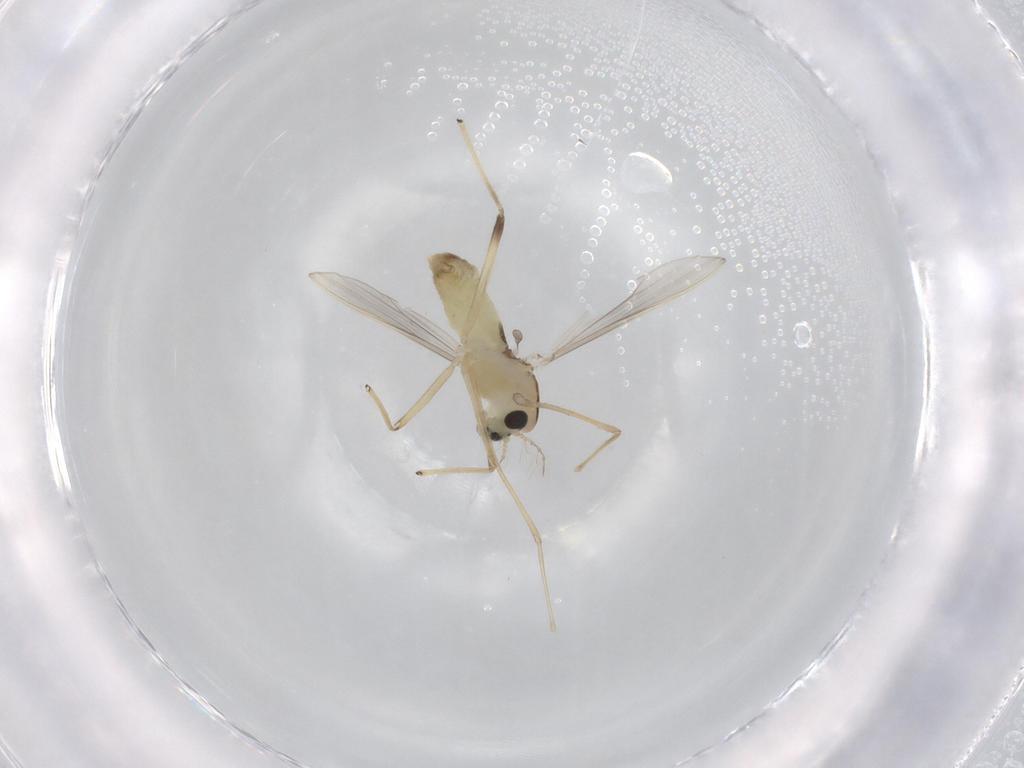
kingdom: Animalia
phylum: Arthropoda
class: Insecta
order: Diptera
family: Chironomidae
